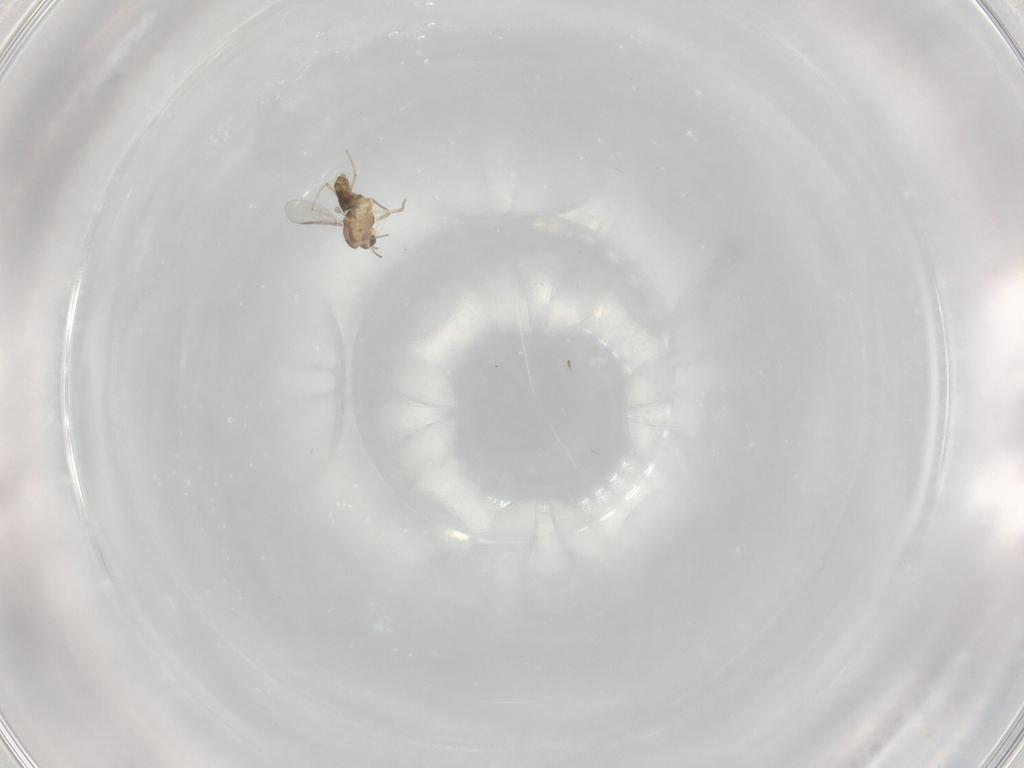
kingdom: Animalia
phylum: Arthropoda
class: Insecta
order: Diptera
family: Chironomidae
